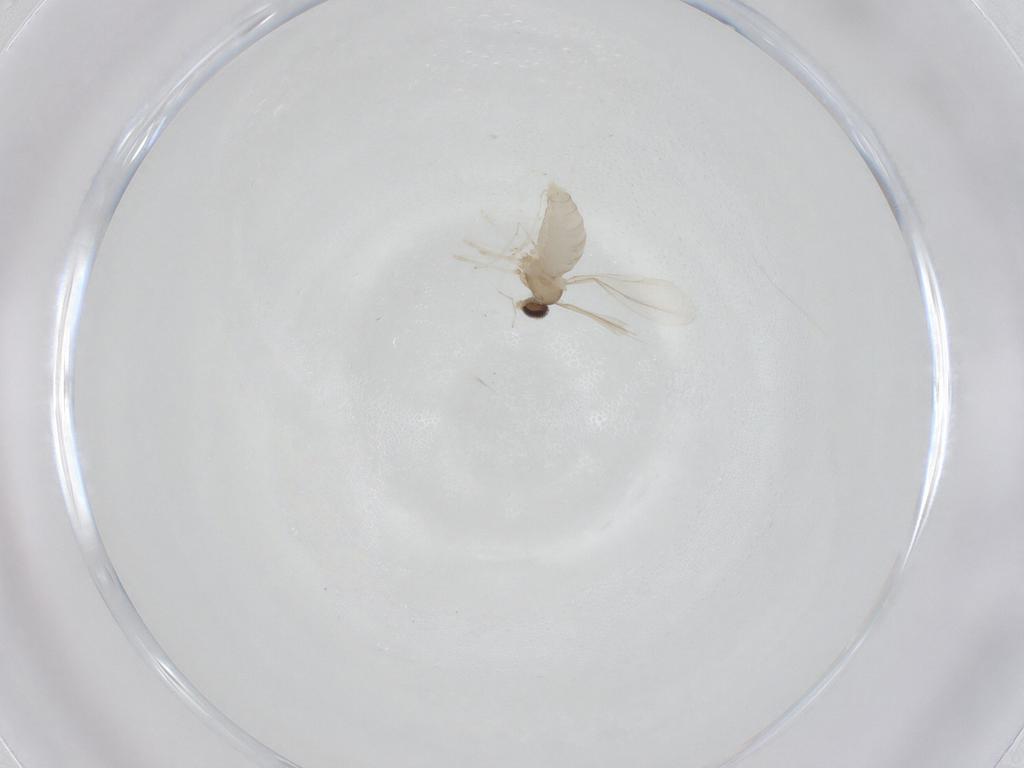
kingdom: Animalia
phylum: Arthropoda
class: Insecta
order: Diptera
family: Cecidomyiidae
